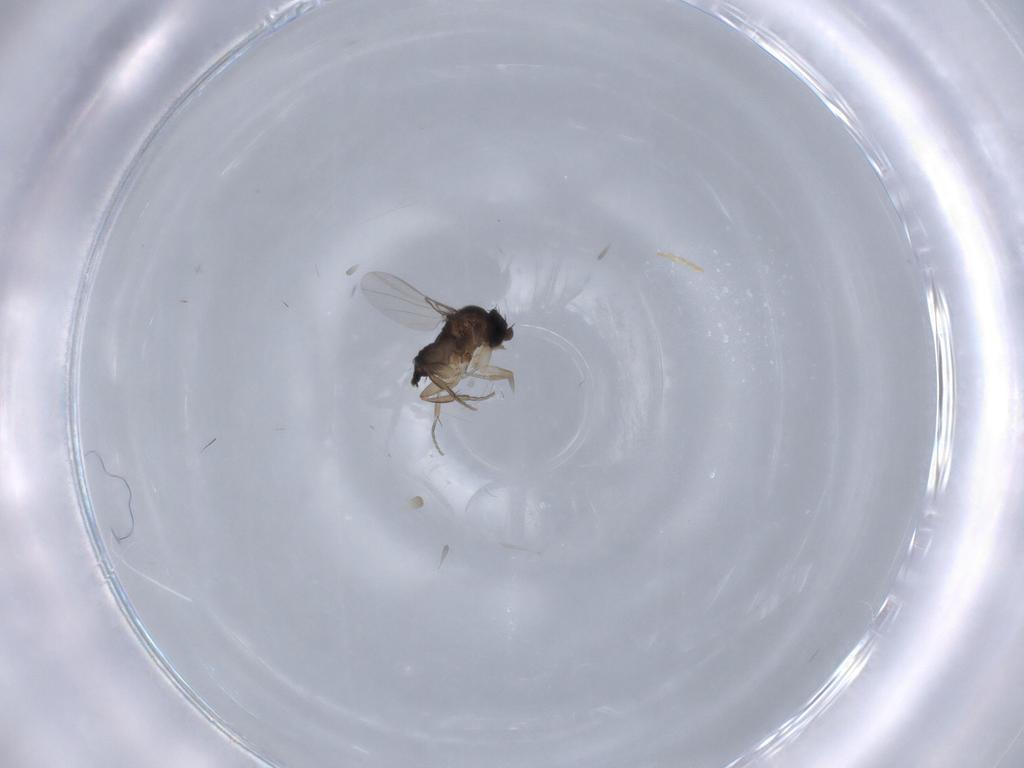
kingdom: Animalia
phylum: Arthropoda
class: Insecta
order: Diptera
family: Phoridae
